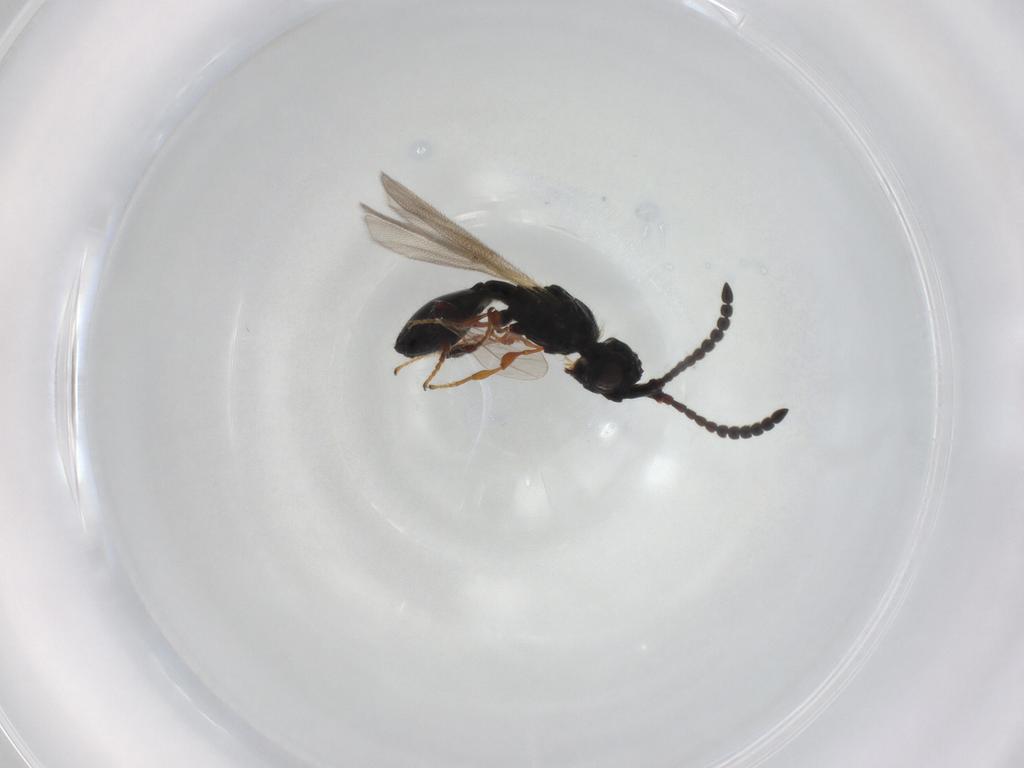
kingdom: Animalia
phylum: Arthropoda
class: Insecta
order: Hymenoptera
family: Diapriidae
